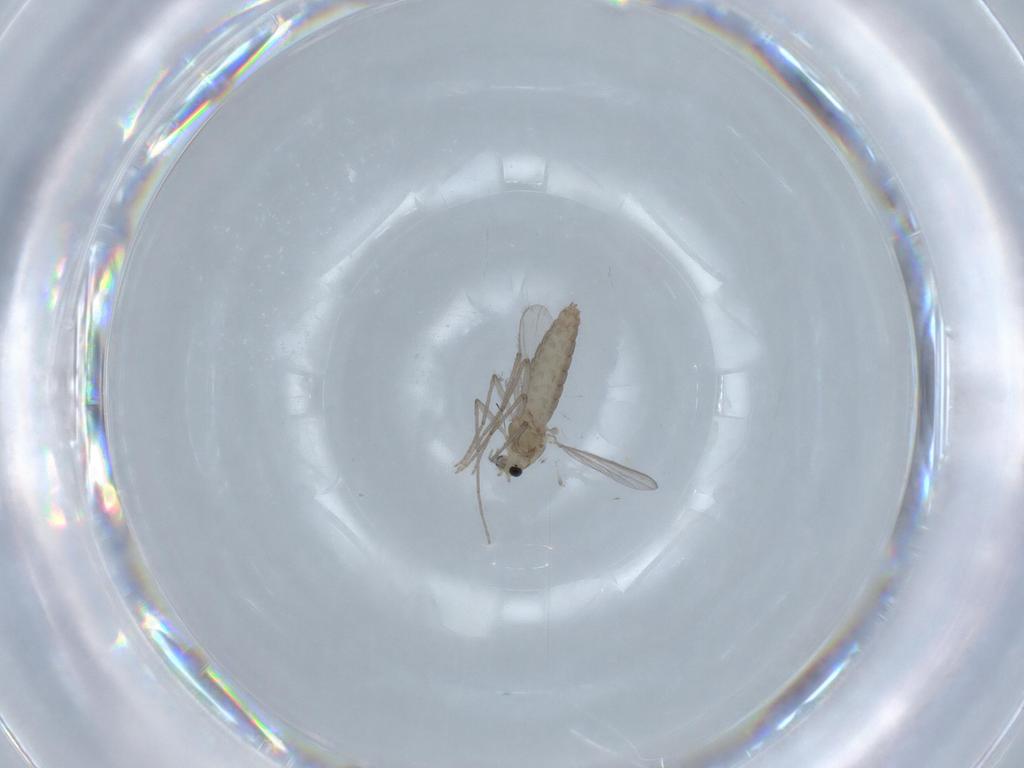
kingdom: Animalia
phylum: Arthropoda
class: Insecta
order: Diptera
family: Chironomidae
